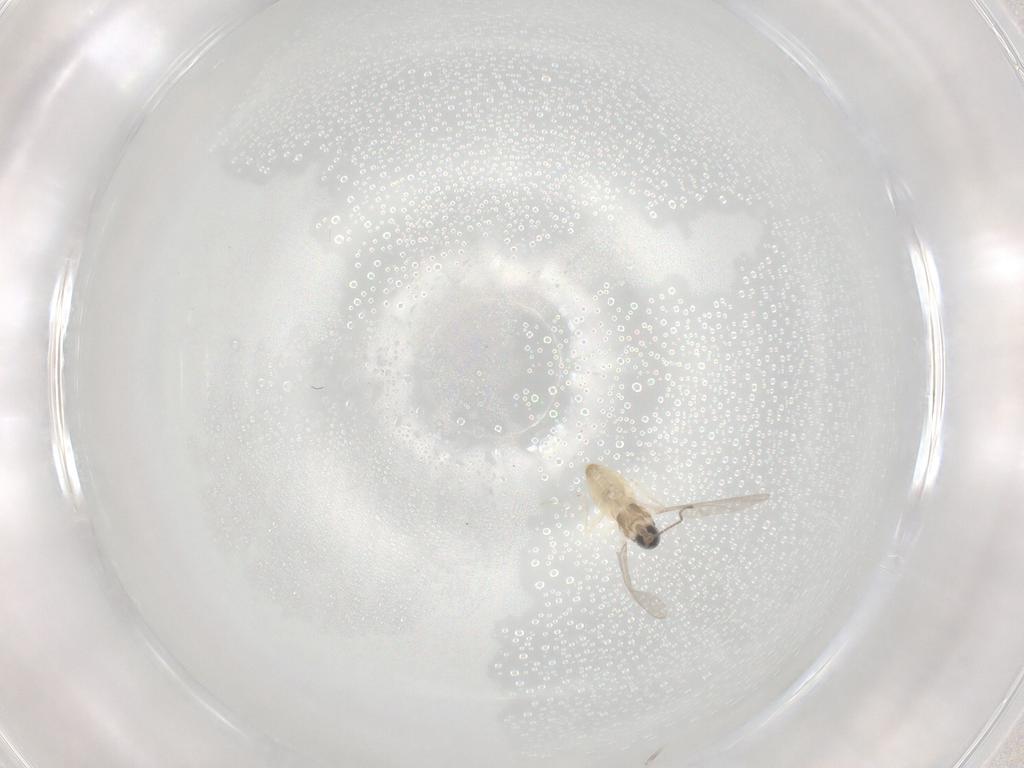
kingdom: Animalia
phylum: Arthropoda
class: Insecta
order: Diptera
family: Cecidomyiidae
